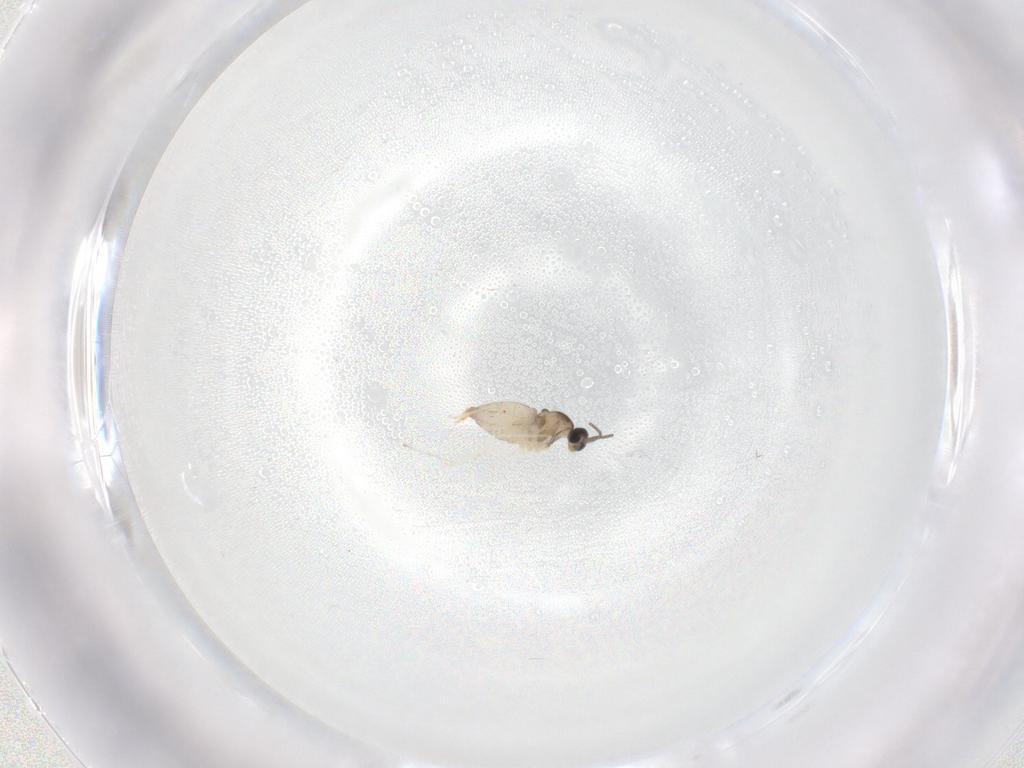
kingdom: Animalia
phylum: Arthropoda
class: Insecta
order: Diptera
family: Cecidomyiidae
